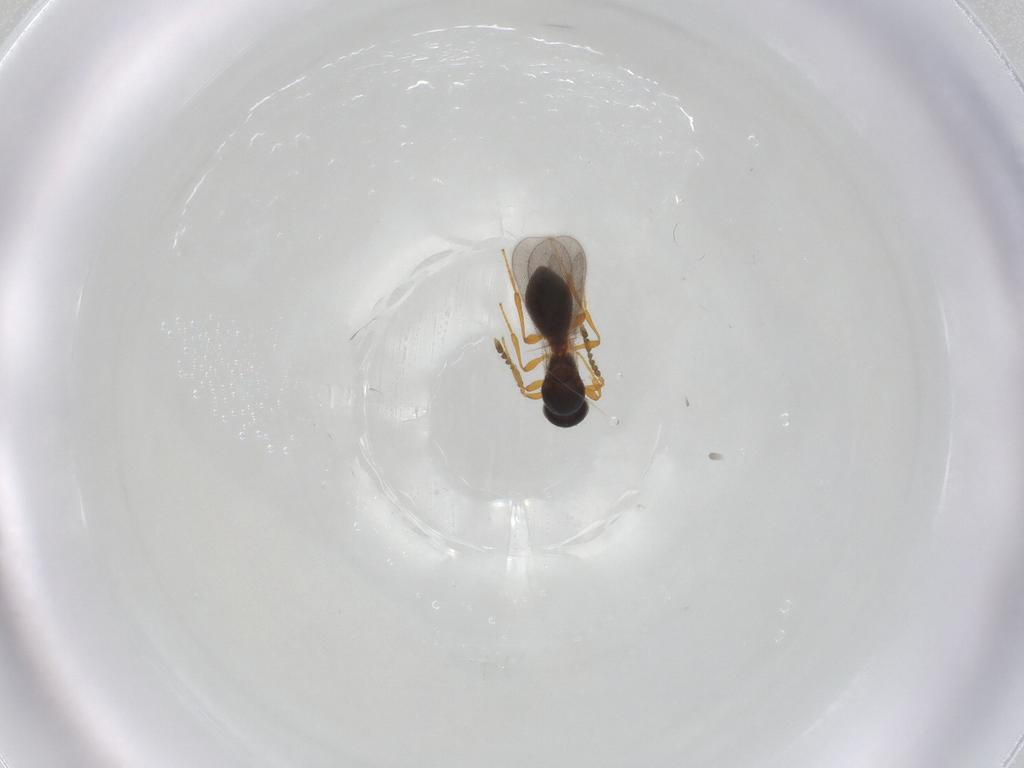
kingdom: Animalia
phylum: Arthropoda
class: Insecta
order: Hymenoptera
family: Platygastridae
